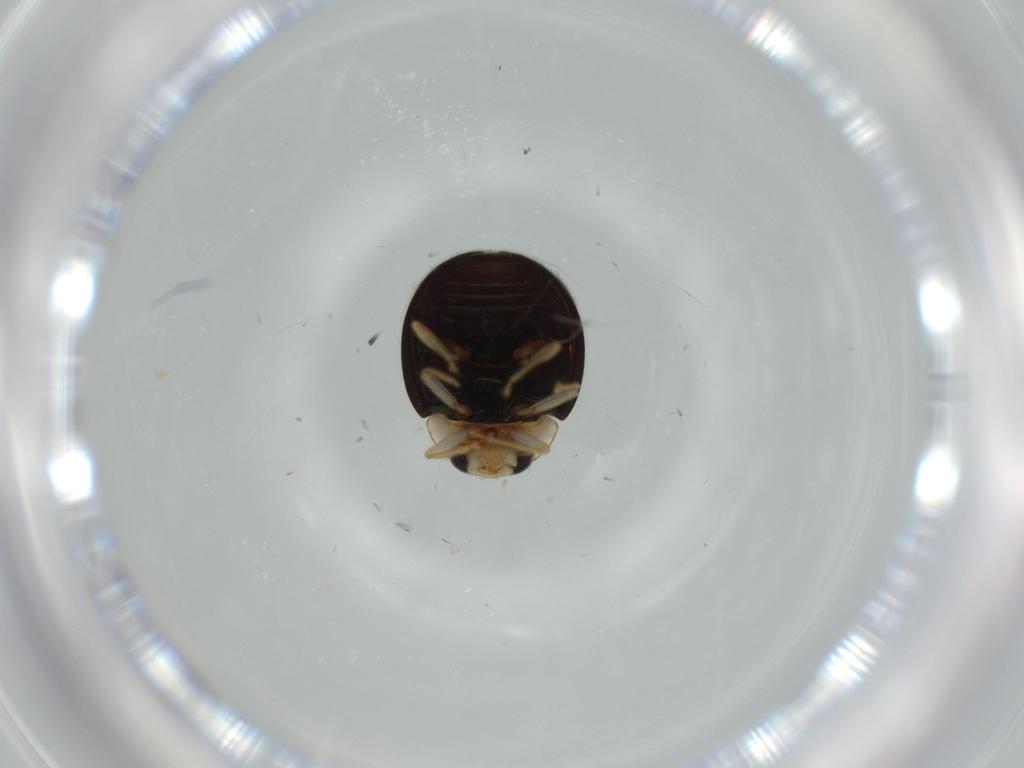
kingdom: Animalia
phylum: Arthropoda
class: Insecta
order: Coleoptera
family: Coccinellidae
